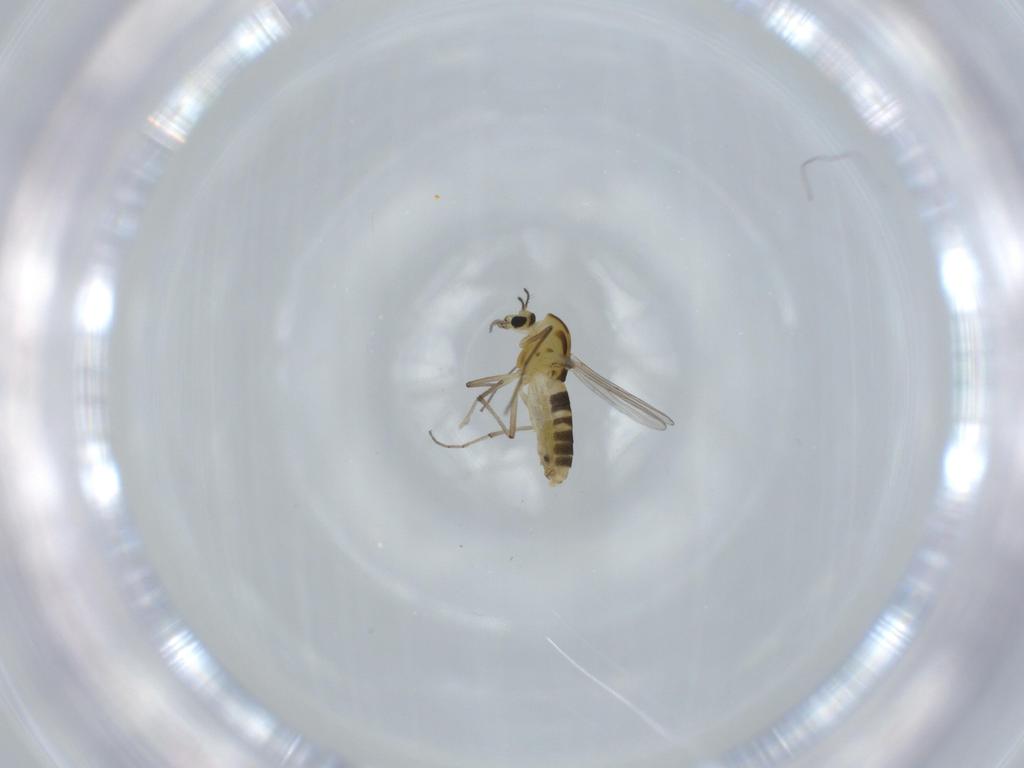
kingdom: Animalia
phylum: Arthropoda
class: Insecta
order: Diptera
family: Chironomidae
